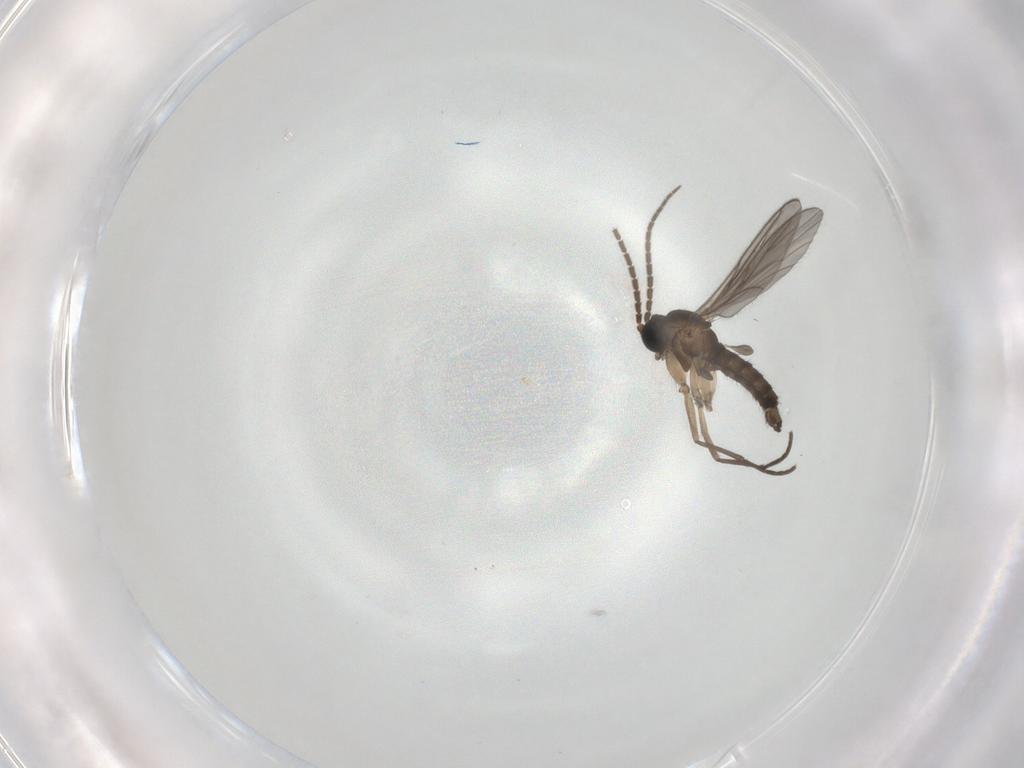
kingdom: Animalia
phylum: Arthropoda
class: Insecta
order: Diptera
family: Sciaridae
